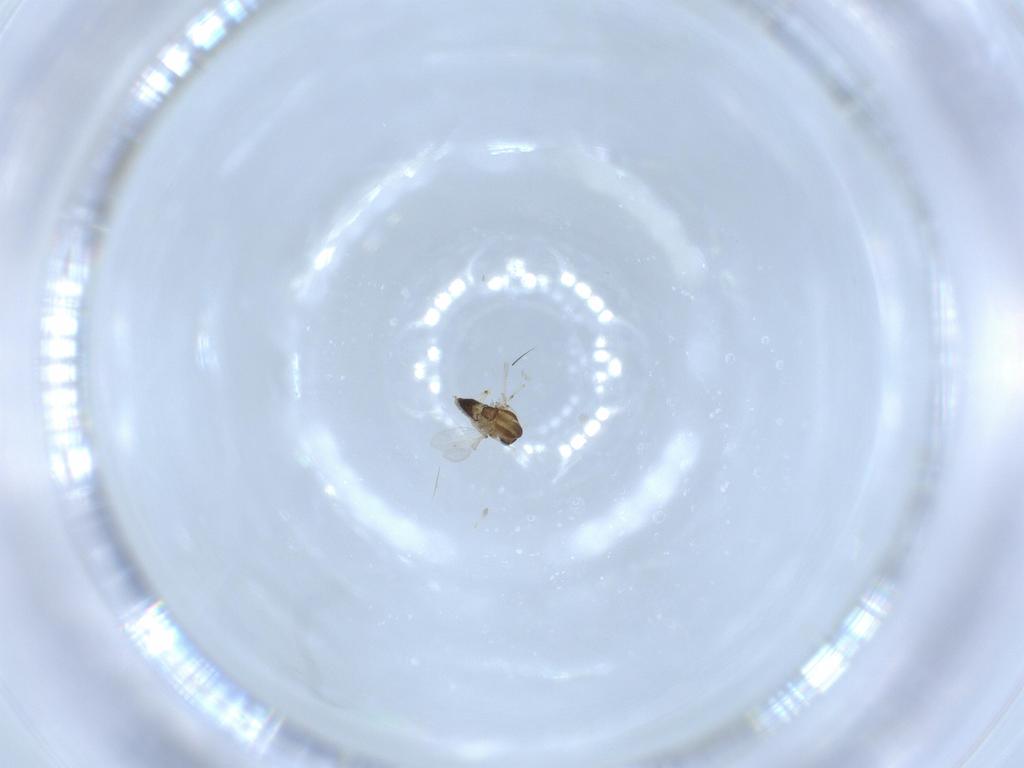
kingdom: Animalia
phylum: Arthropoda
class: Insecta
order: Diptera
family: Chironomidae
